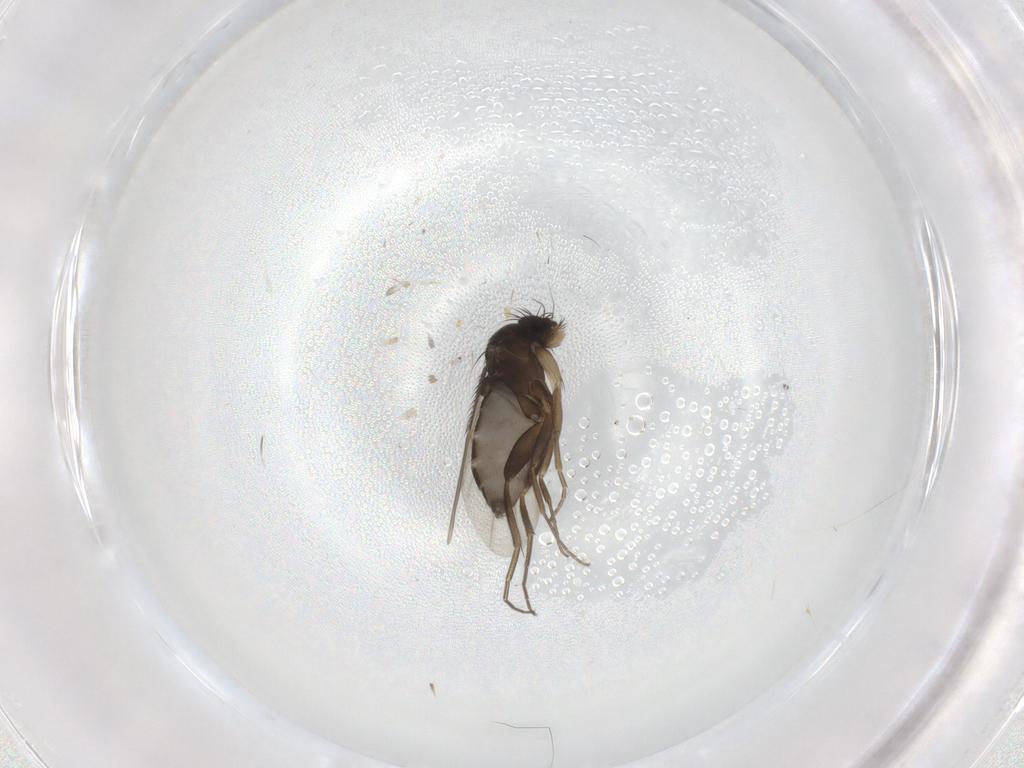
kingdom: Animalia
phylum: Arthropoda
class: Insecta
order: Diptera
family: Phoridae
